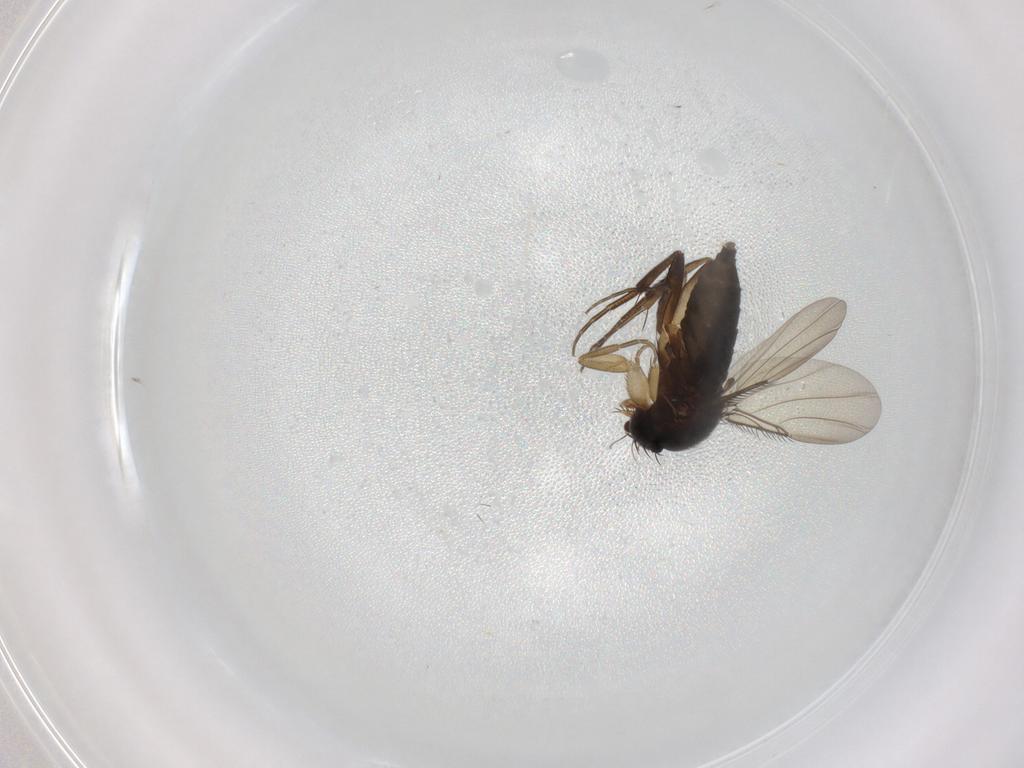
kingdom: Animalia
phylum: Arthropoda
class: Insecta
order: Diptera
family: Phoridae
